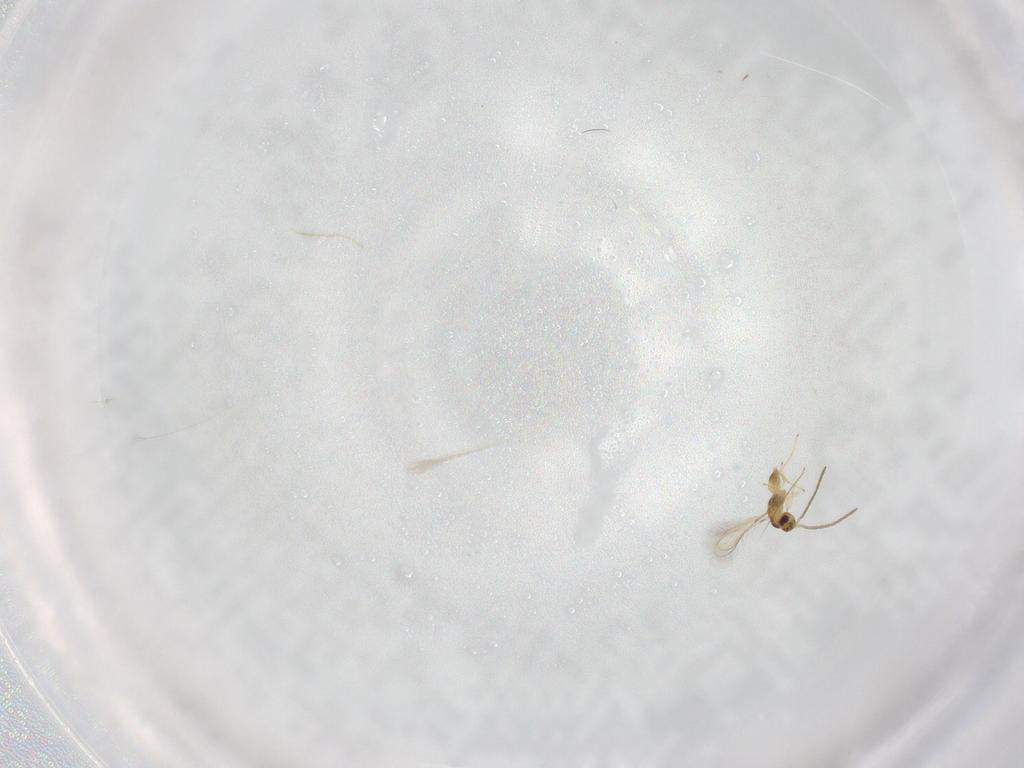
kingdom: Animalia
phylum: Arthropoda
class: Insecta
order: Hymenoptera
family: Mymaridae
